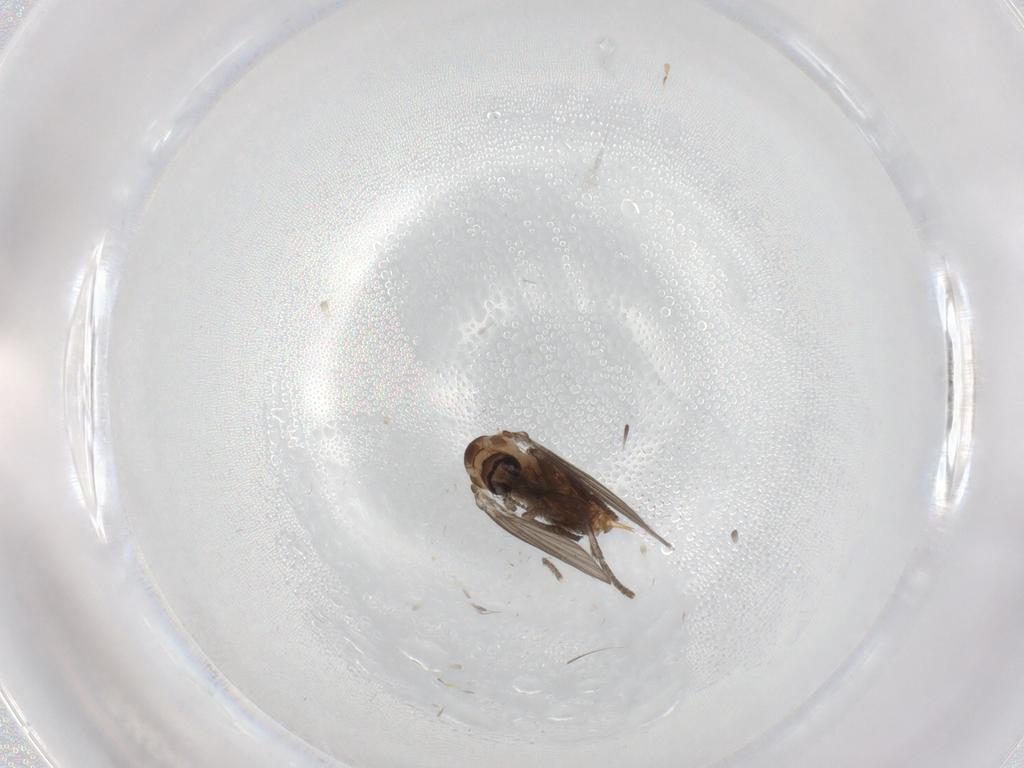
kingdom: Animalia
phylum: Arthropoda
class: Insecta
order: Diptera
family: Psychodidae
